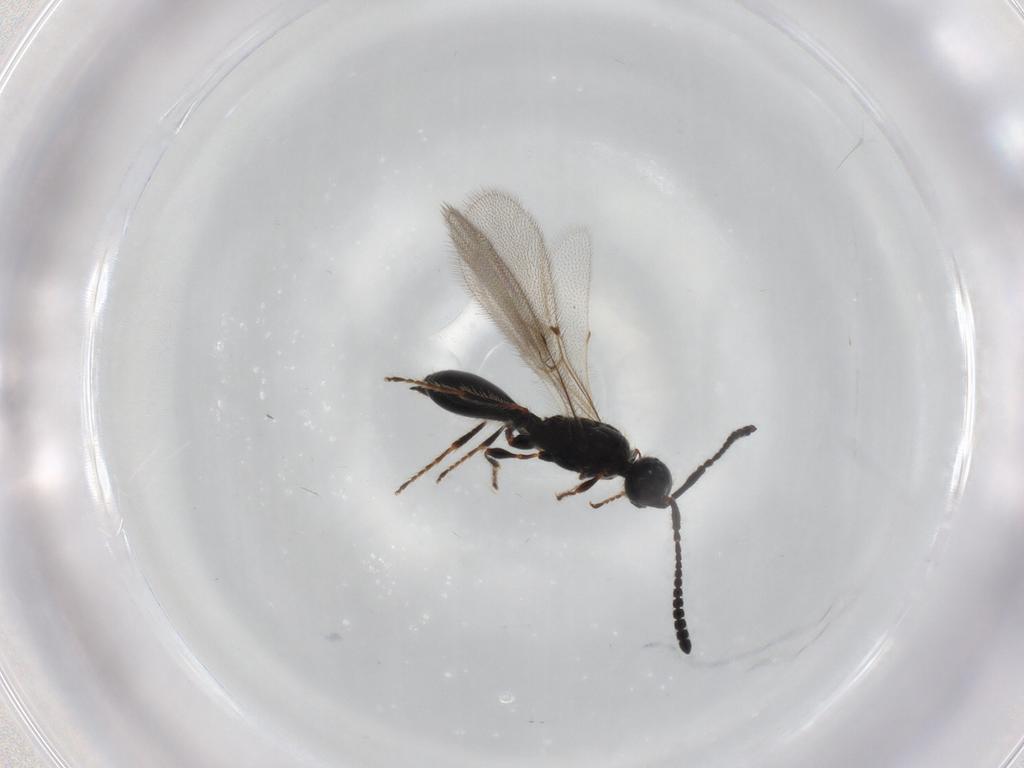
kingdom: Animalia
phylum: Arthropoda
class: Insecta
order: Hymenoptera
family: Diapriidae
